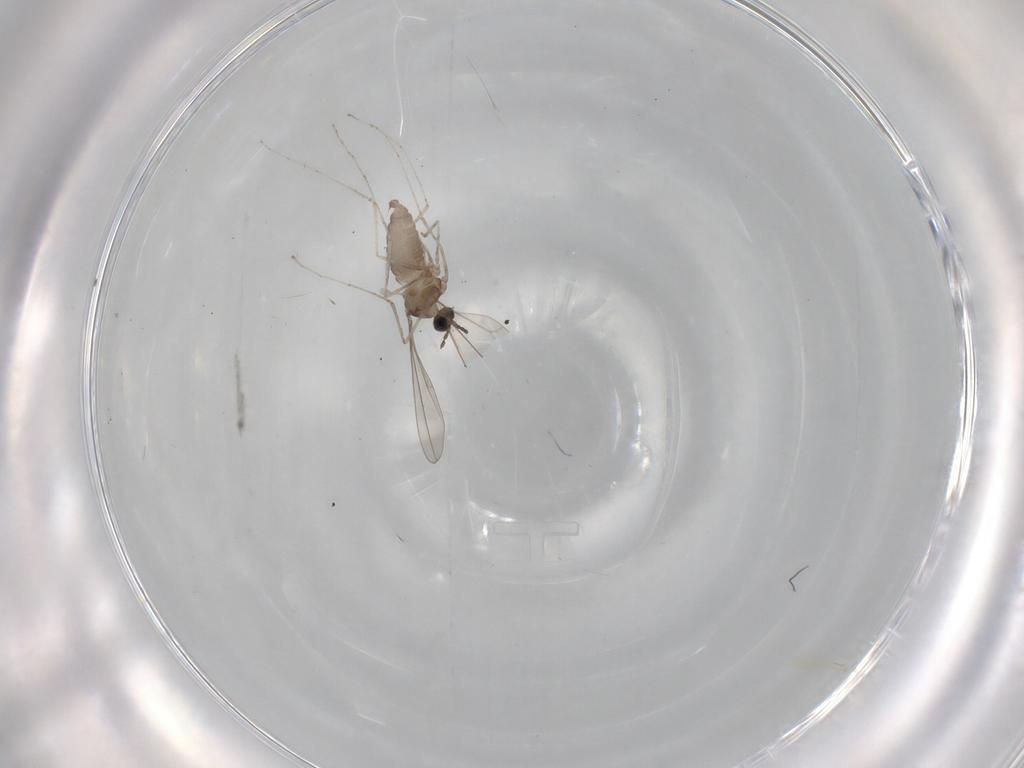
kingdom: Animalia
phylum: Arthropoda
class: Insecta
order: Diptera
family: Cecidomyiidae
